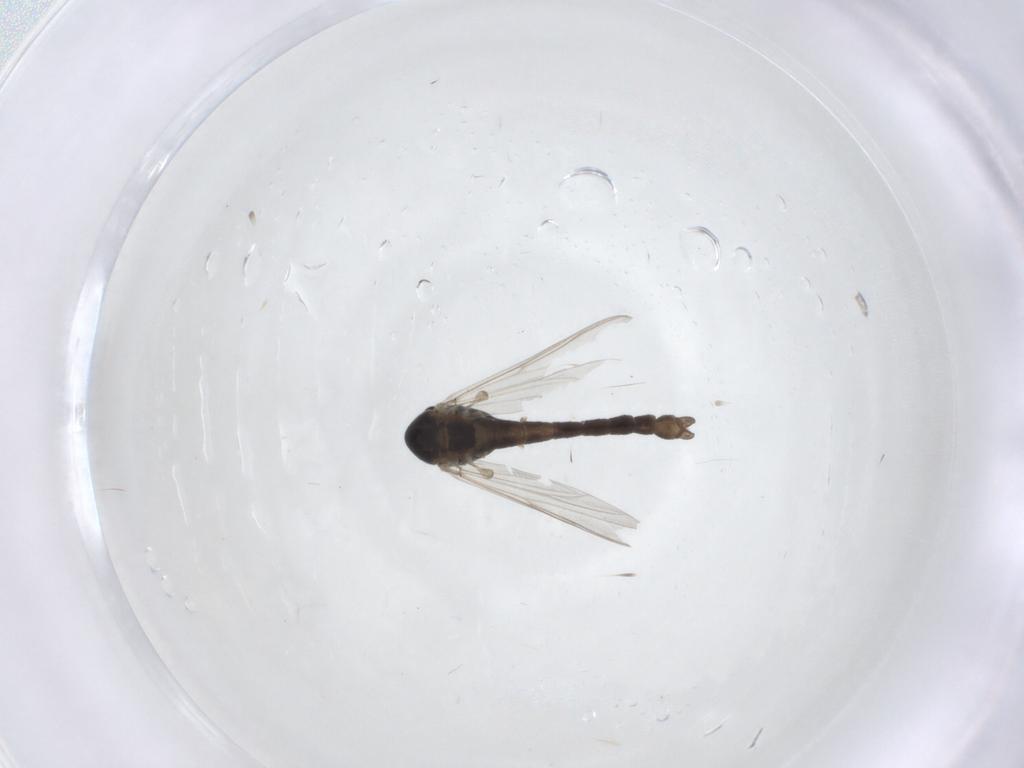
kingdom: Animalia
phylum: Arthropoda
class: Insecta
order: Diptera
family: Chironomidae
